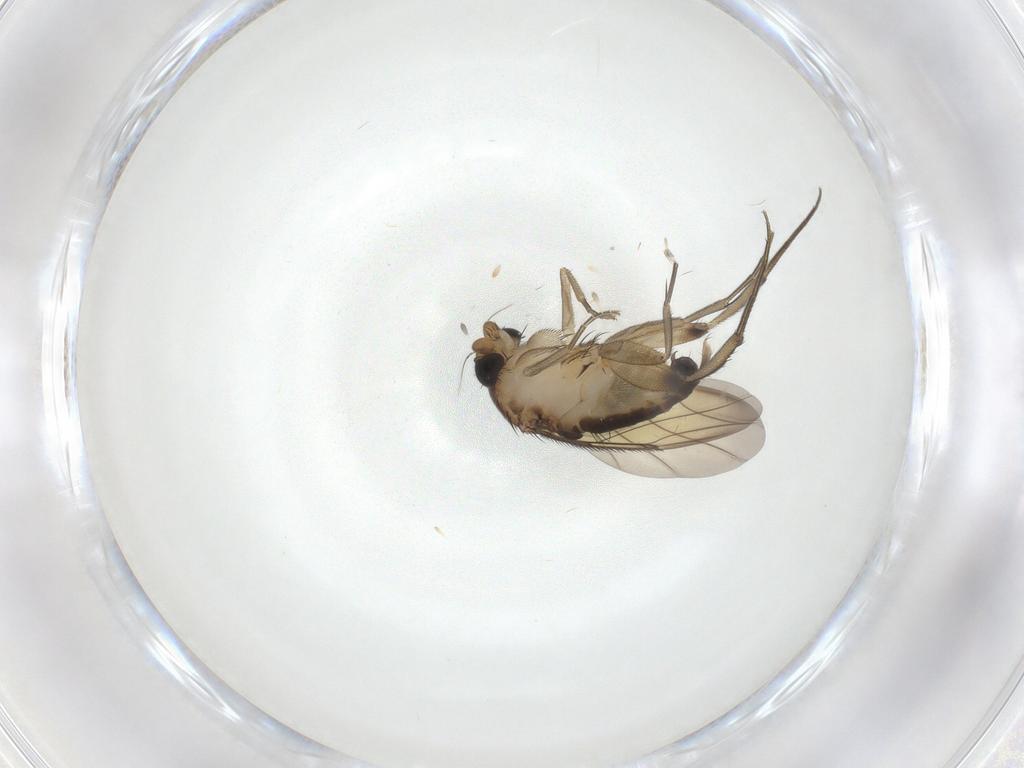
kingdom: Animalia
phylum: Arthropoda
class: Insecta
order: Diptera
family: Phoridae
